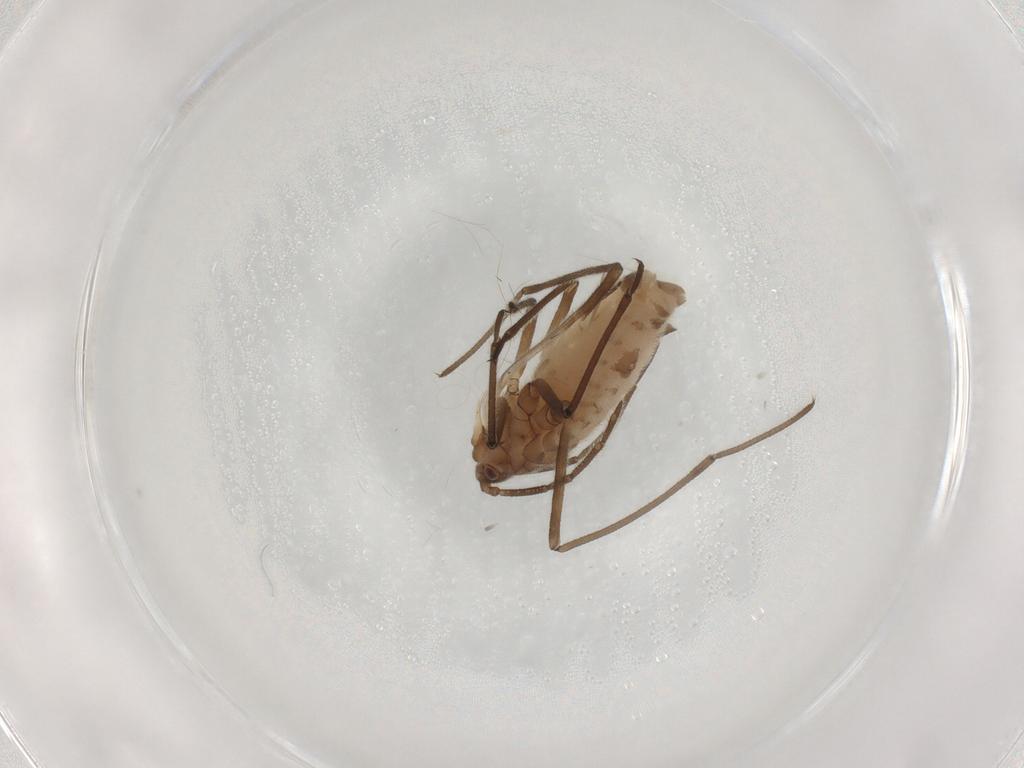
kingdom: Animalia
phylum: Arthropoda
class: Insecta
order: Hemiptera
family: Aphididae
